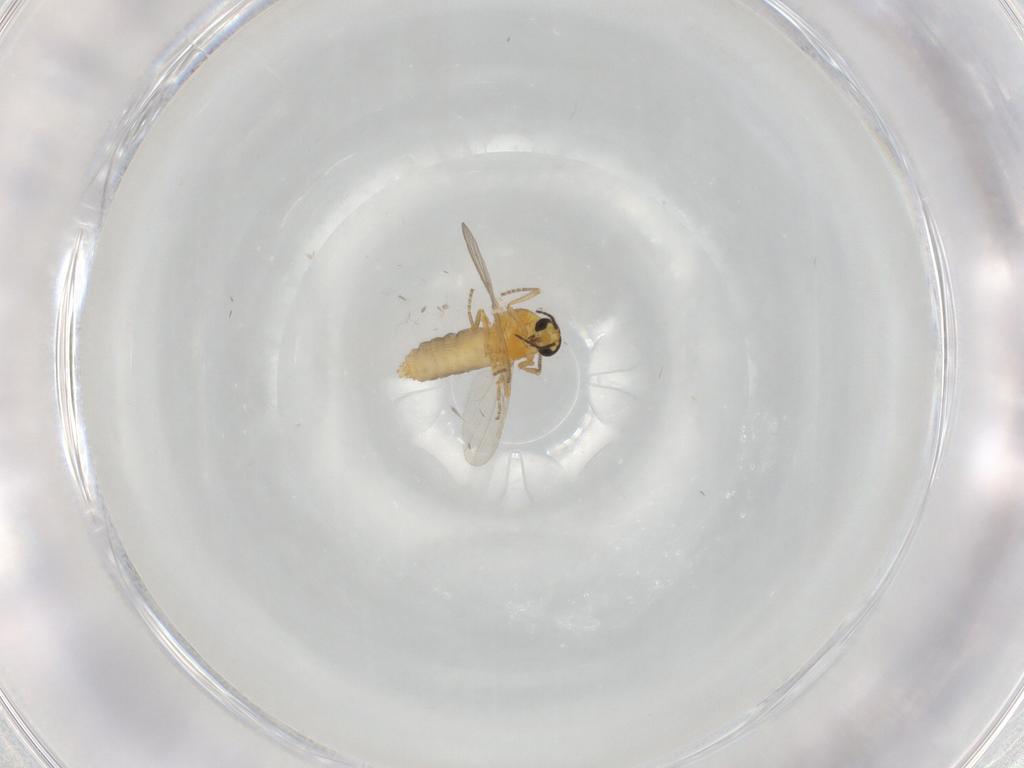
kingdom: Animalia
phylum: Arthropoda
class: Insecta
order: Diptera
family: Ceratopogonidae
